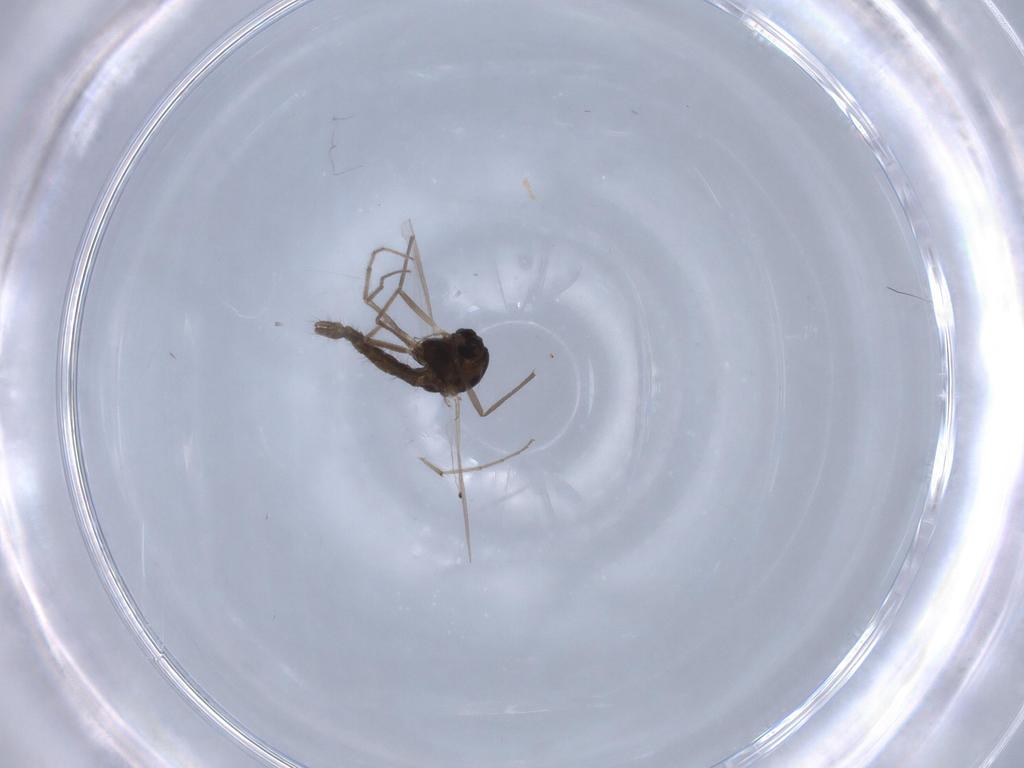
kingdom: Animalia
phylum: Arthropoda
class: Insecta
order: Diptera
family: Chironomidae
